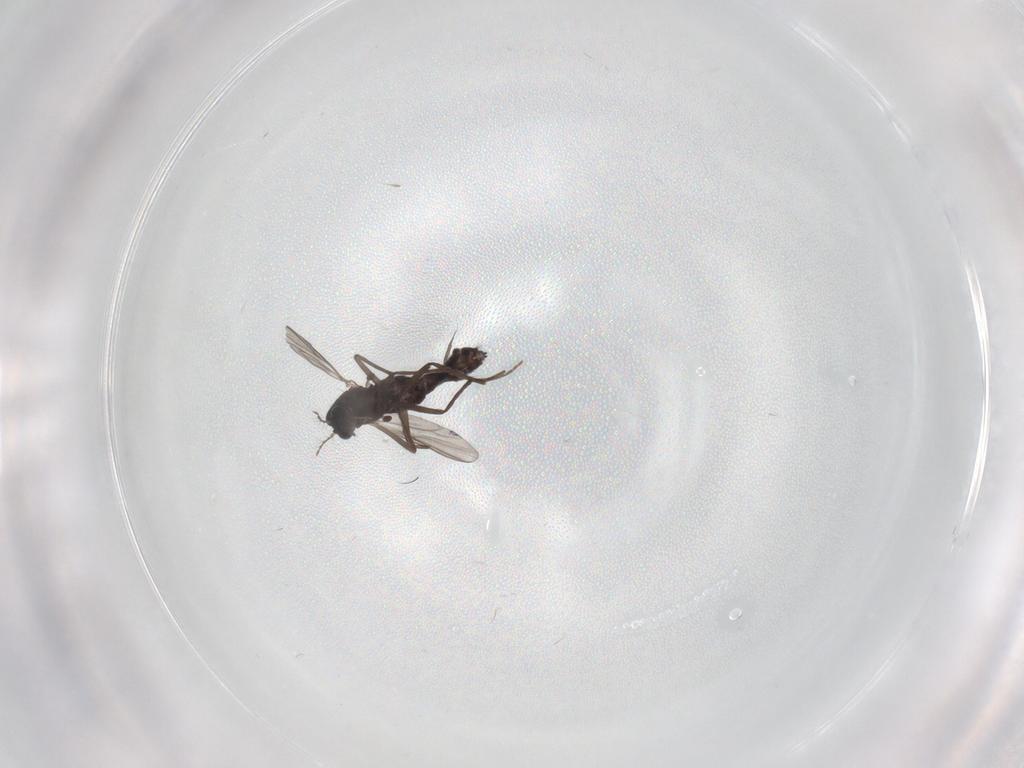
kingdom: Animalia
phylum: Arthropoda
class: Insecta
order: Diptera
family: Chironomidae
